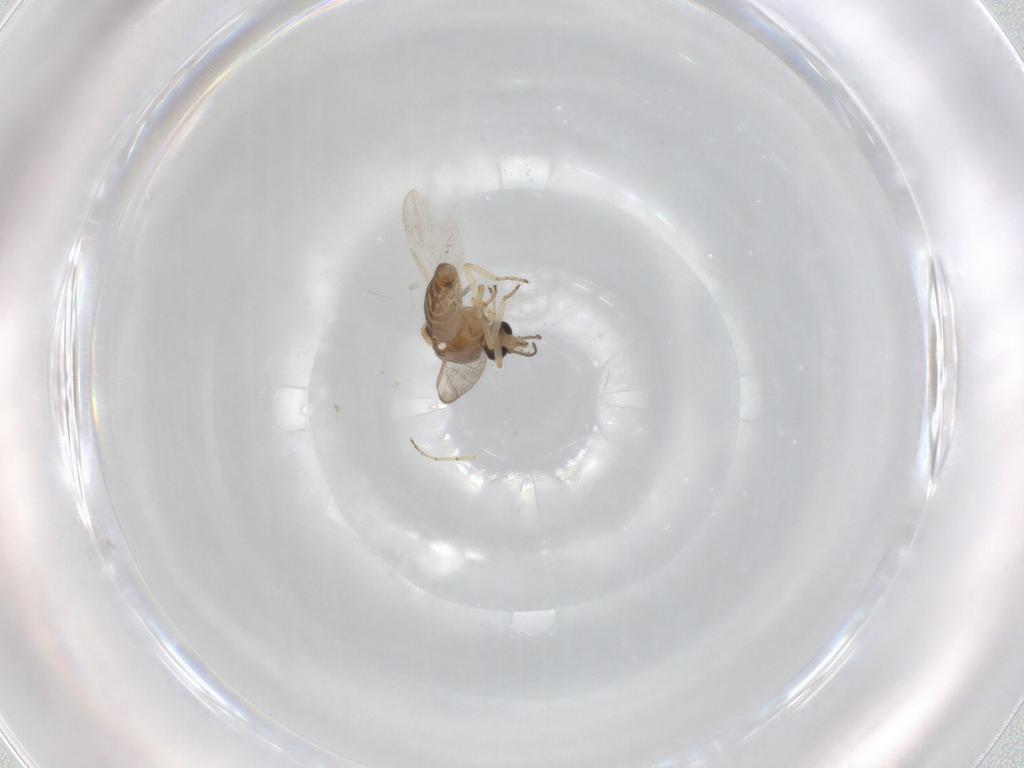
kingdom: Animalia
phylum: Arthropoda
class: Insecta
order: Diptera
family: Ceratopogonidae
